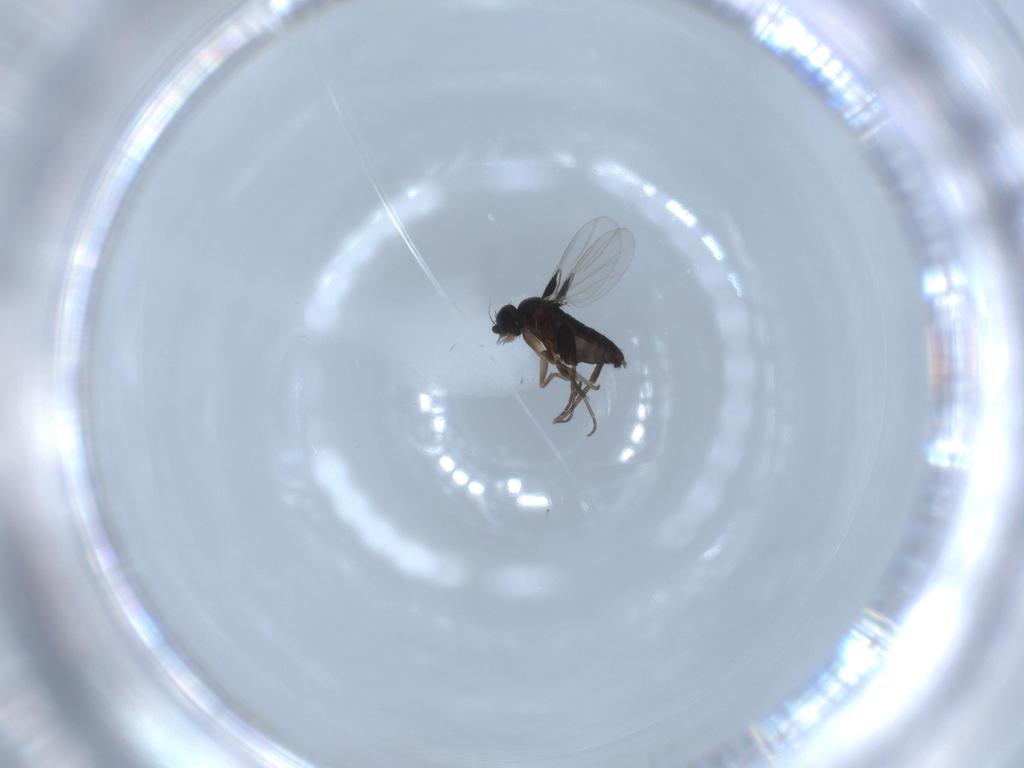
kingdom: Animalia
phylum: Arthropoda
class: Insecta
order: Diptera
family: Phoridae
